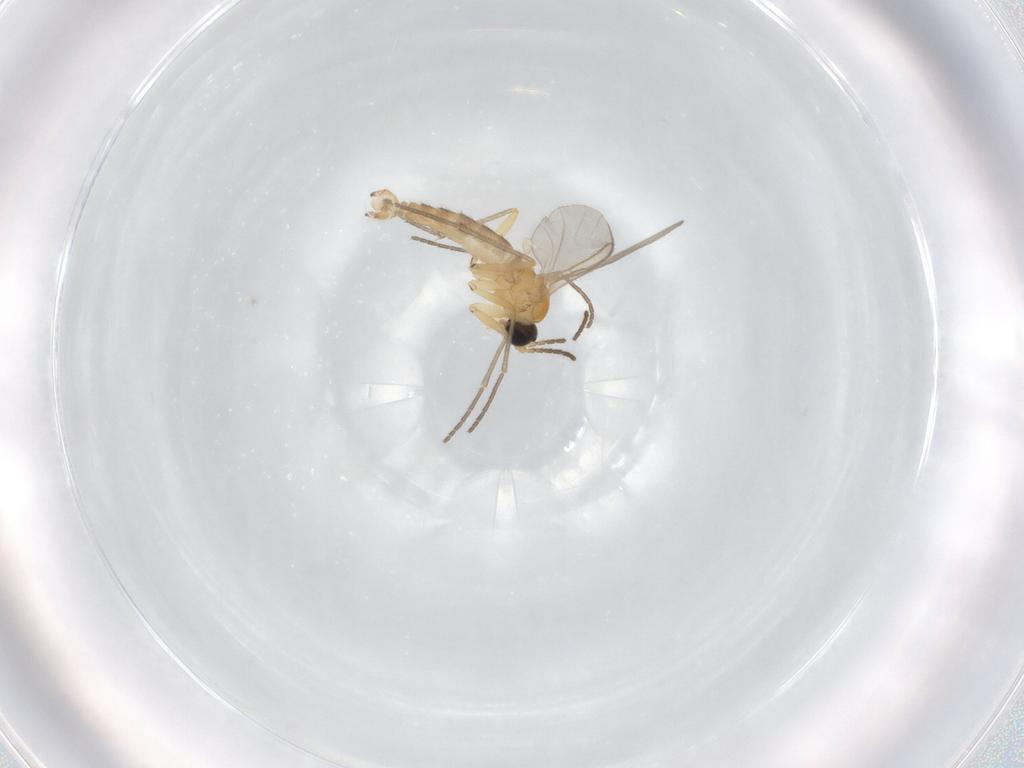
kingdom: Animalia
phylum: Arthropoda
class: Insecta
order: Diptera
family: Sciaridae
